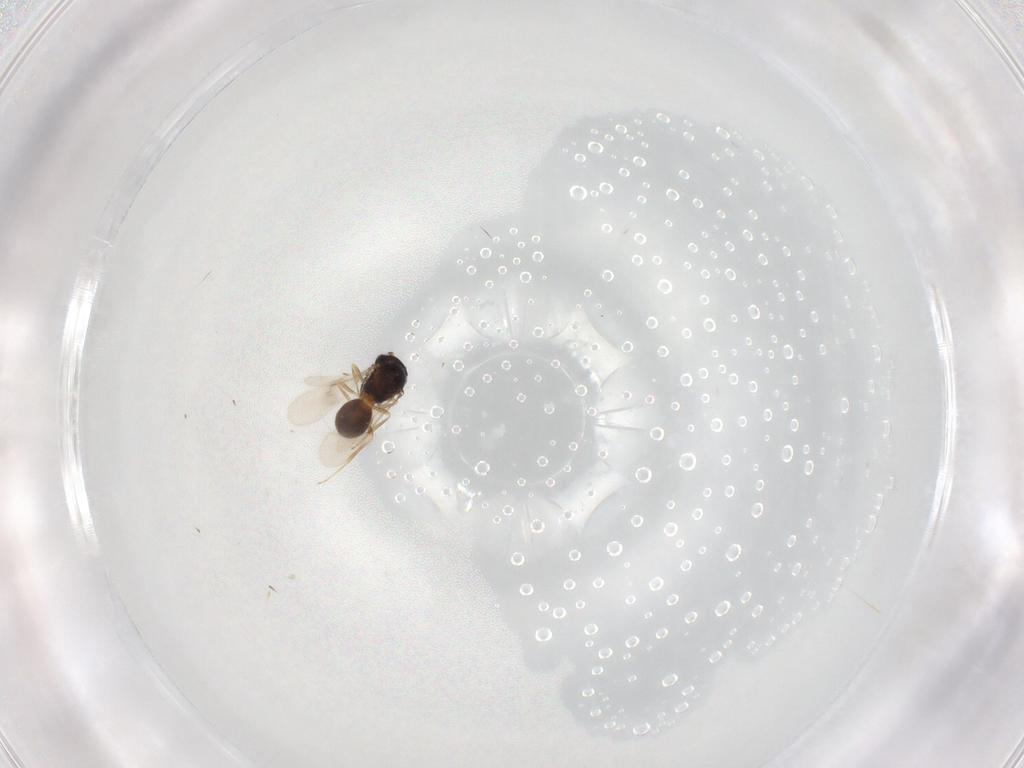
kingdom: Animalia
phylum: Arthropoda
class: Insecta
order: Hymenoptera
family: Scelionidae
